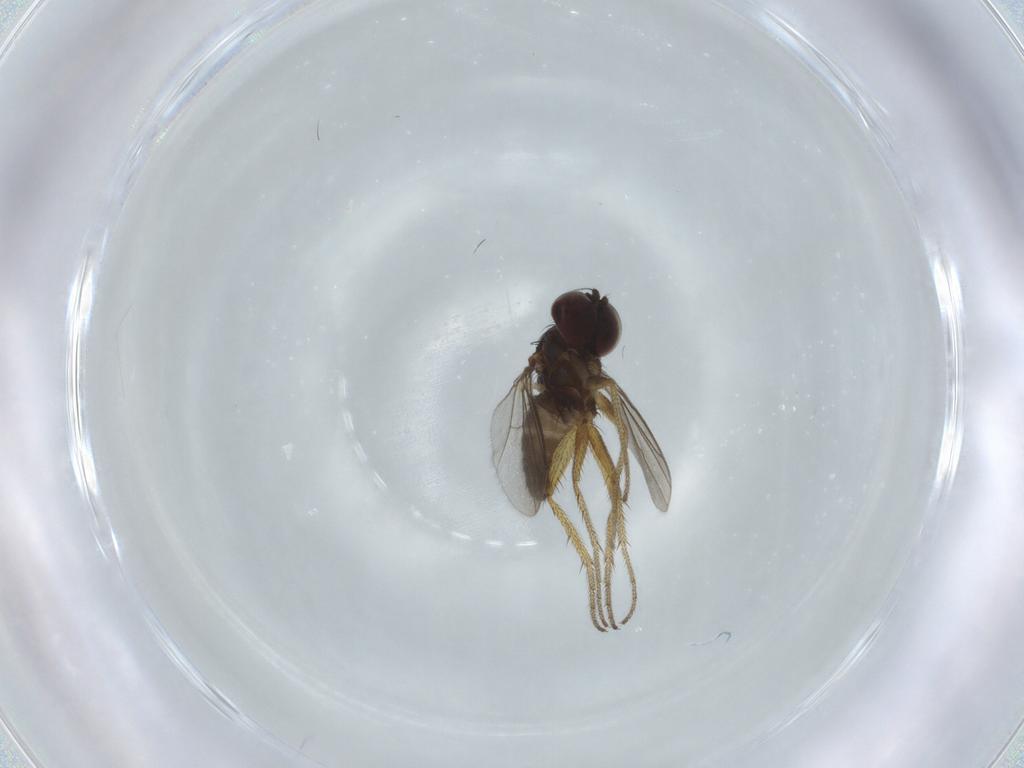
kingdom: Animalia
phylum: Arthropoda
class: Insecta
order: Diptera
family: Dolichopodidae
